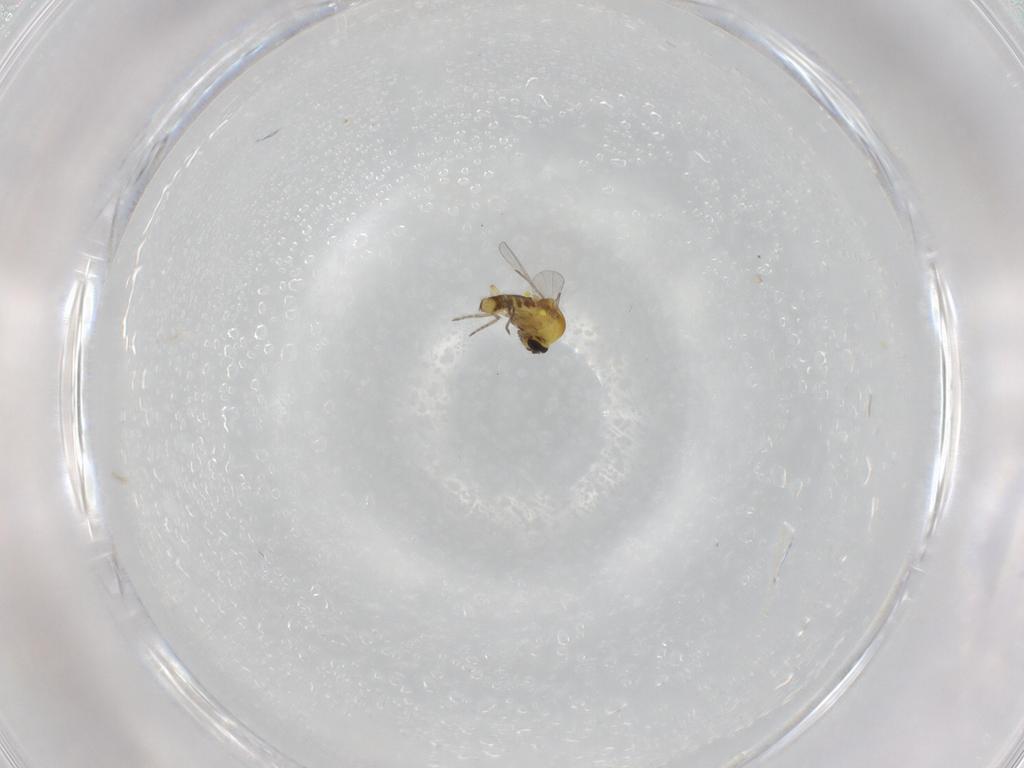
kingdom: Animalia
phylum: Arthropoda
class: Insecta
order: Diptera
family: Ceratopogonidae
